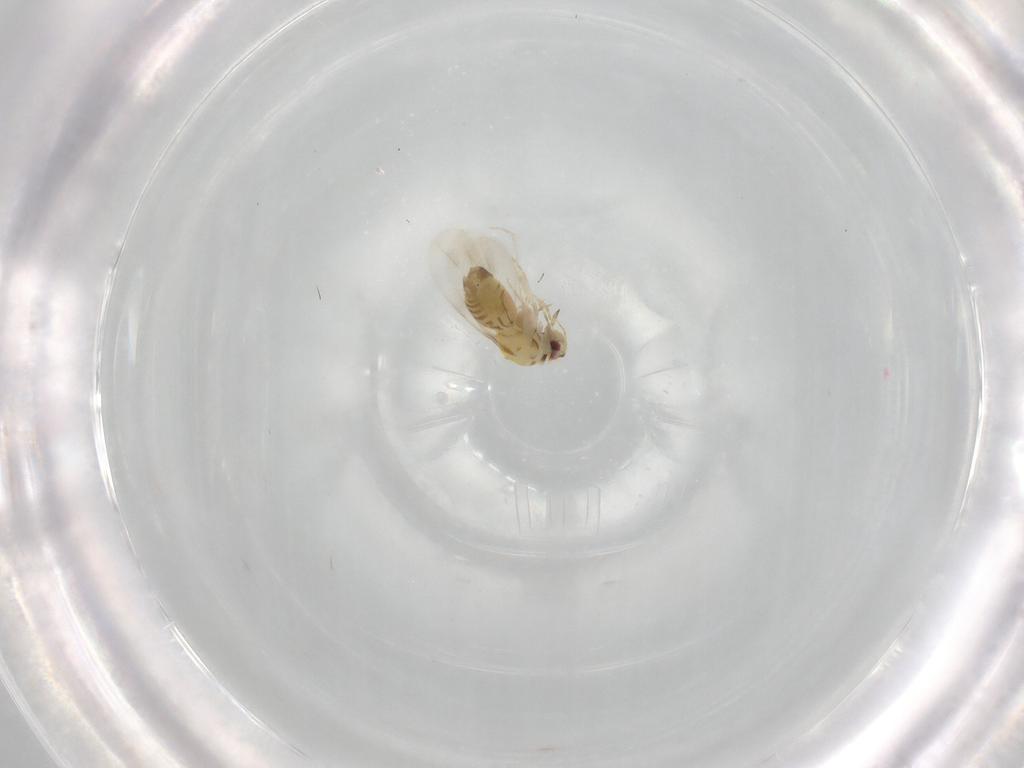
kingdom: Animalia
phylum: Arthropoda
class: Insecta
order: Hemiptera
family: Aleyrodidae
